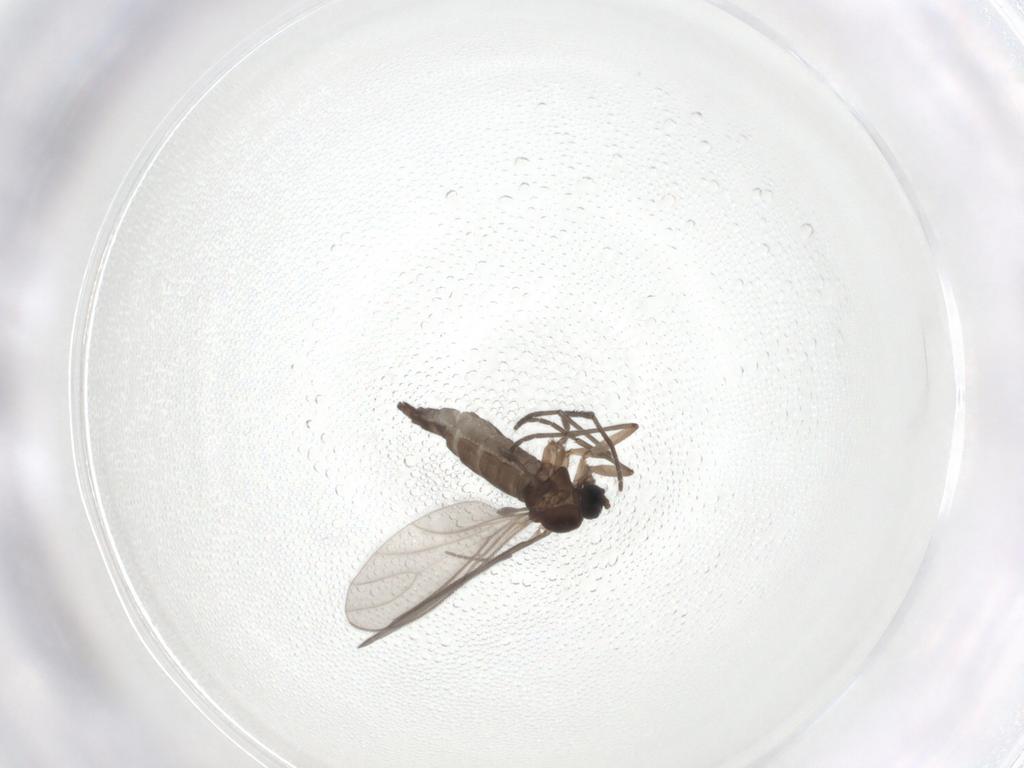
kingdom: Animalia
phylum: Arthropoda
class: Insecta
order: Diptera
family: Sciaridae
